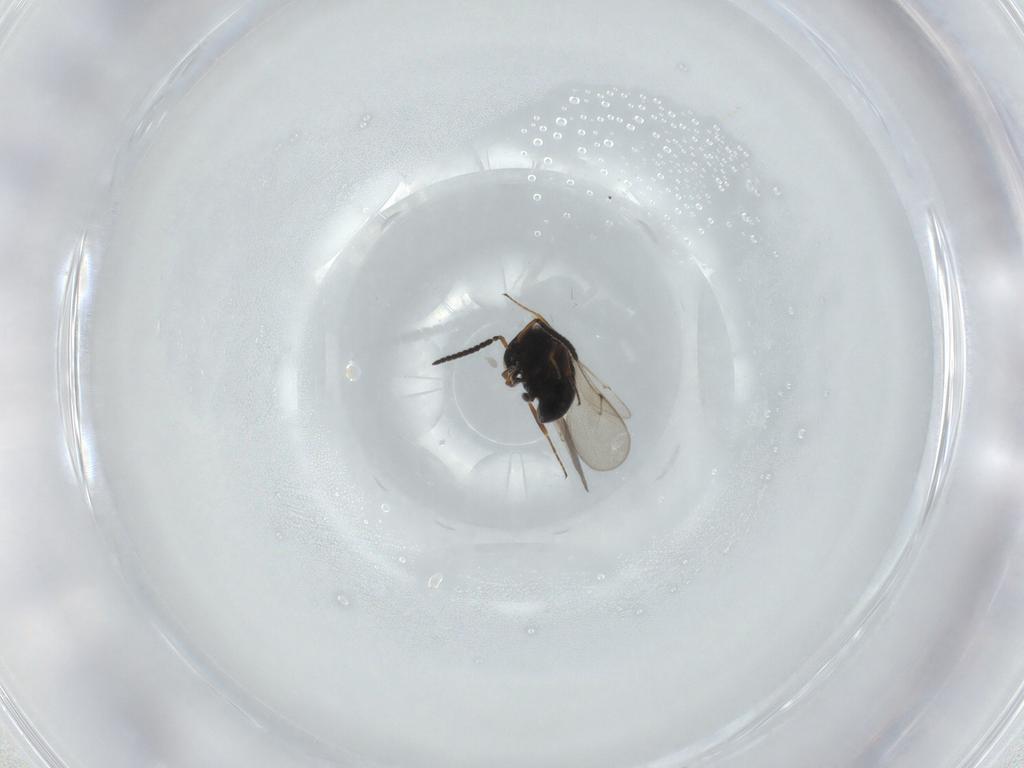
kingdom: Animalia
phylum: Arthropoda
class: Insecta
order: Hymenoptera
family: Scelionidae
